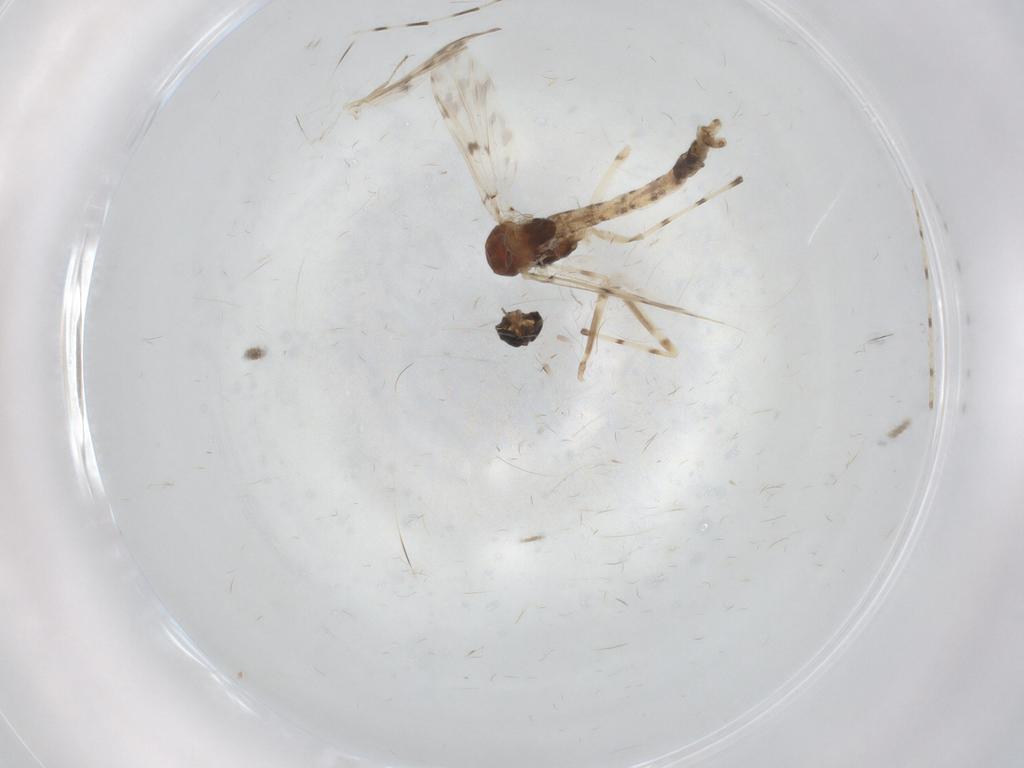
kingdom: Animalia
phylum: Arthropoda
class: Insecta
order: Diptera
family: Chironomidae
